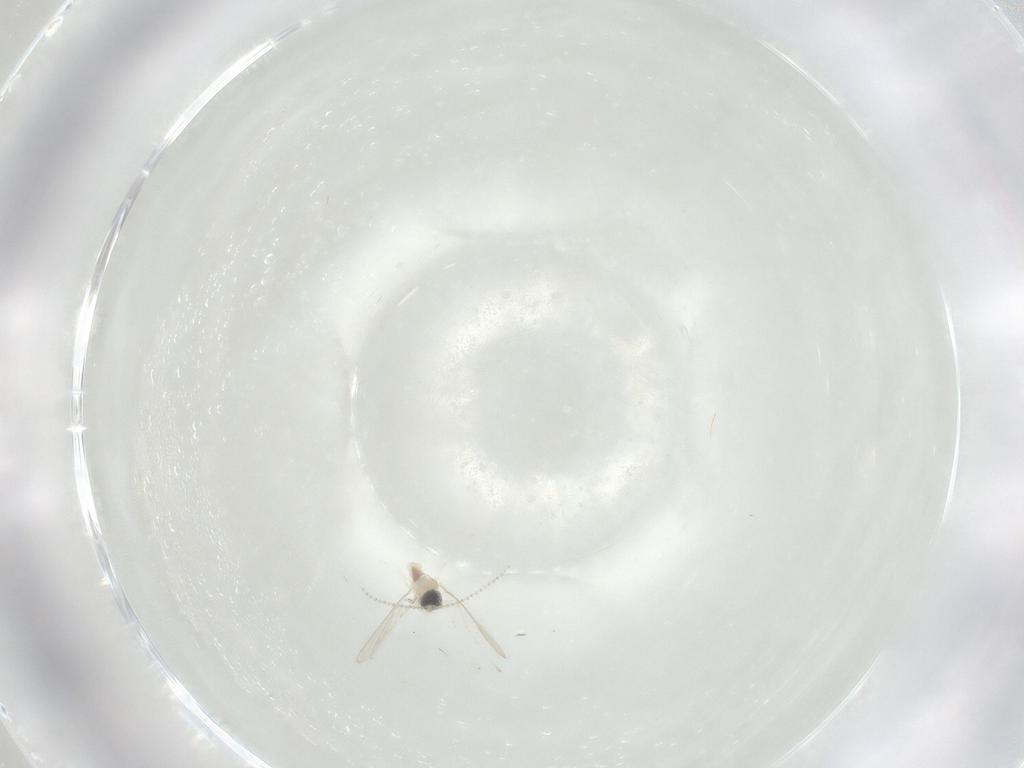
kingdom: Animalia
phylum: Arthropoda
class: Insecta
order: Diptera
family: Cecidomyiidae
